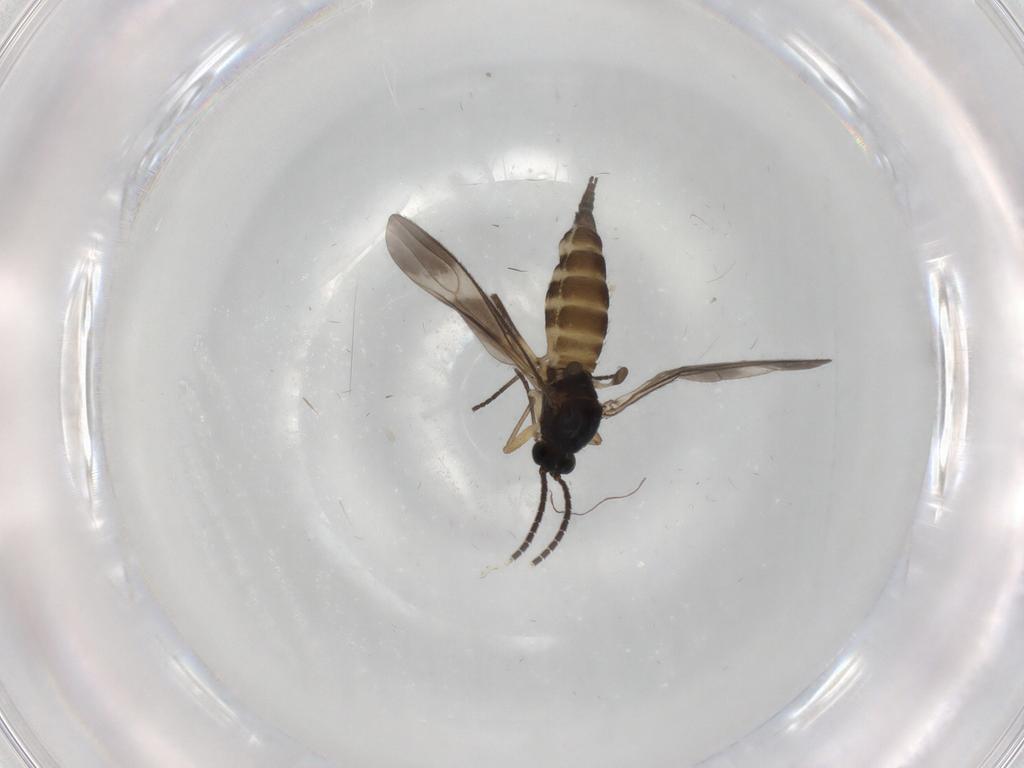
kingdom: Animalia
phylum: Arthropoda
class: Insecta
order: Diptera
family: Sciaridae
